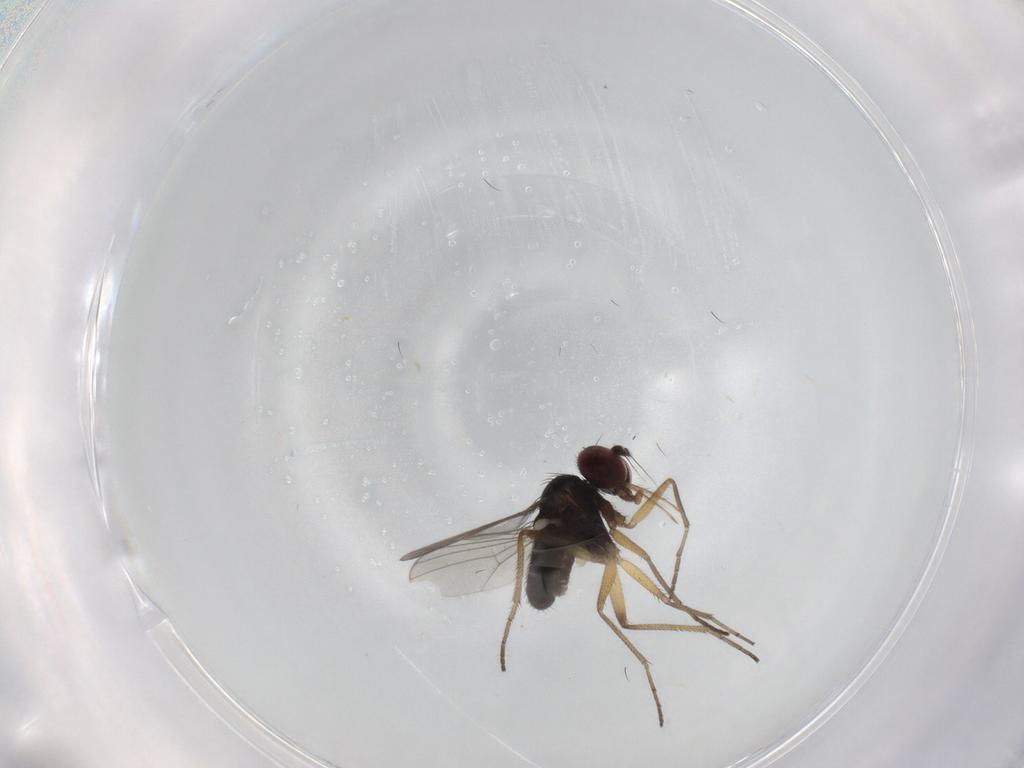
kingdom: Animalia
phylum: Arthropoda
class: Insecta
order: Diptera
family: Dolichopodidae
